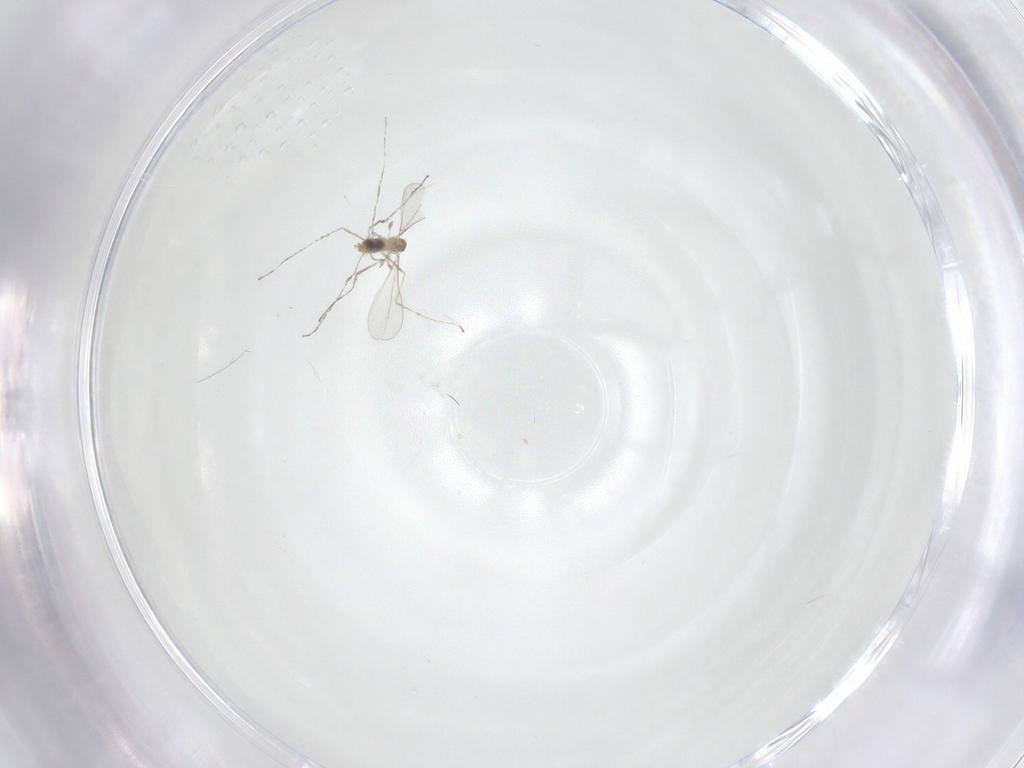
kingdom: Animalia
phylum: Arthropoda
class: Insecta
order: Diptera
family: Cecidomyiidae
